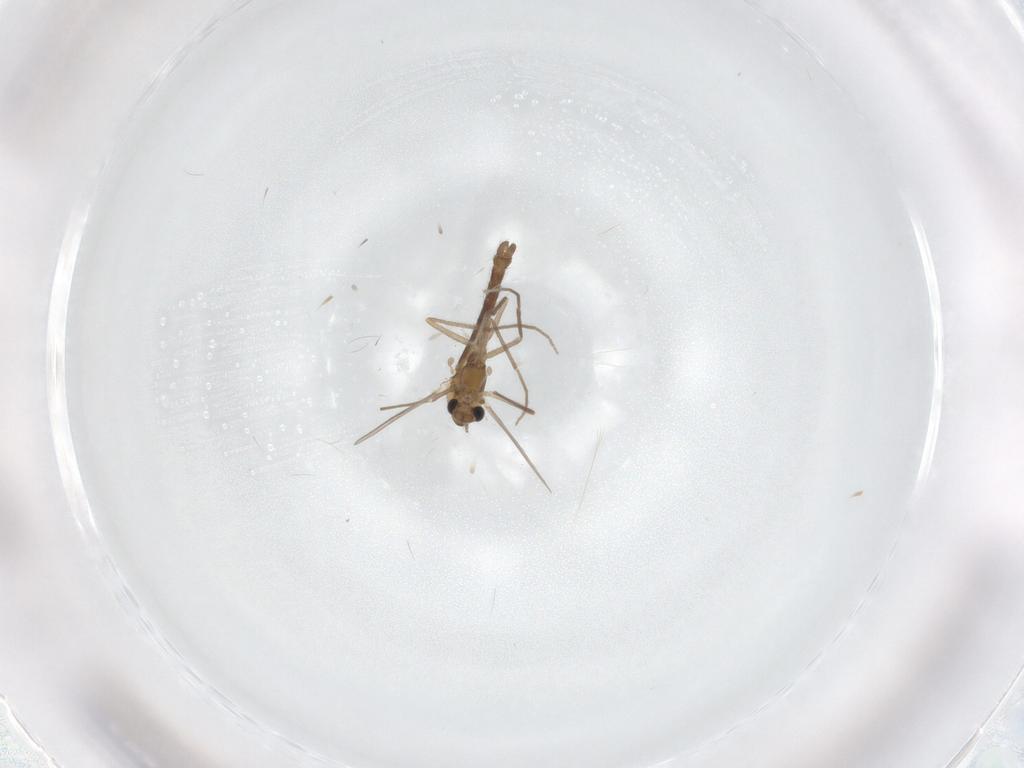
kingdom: Animalia
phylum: Arthropoda
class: Insecta
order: Diptera
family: Chironomidae
